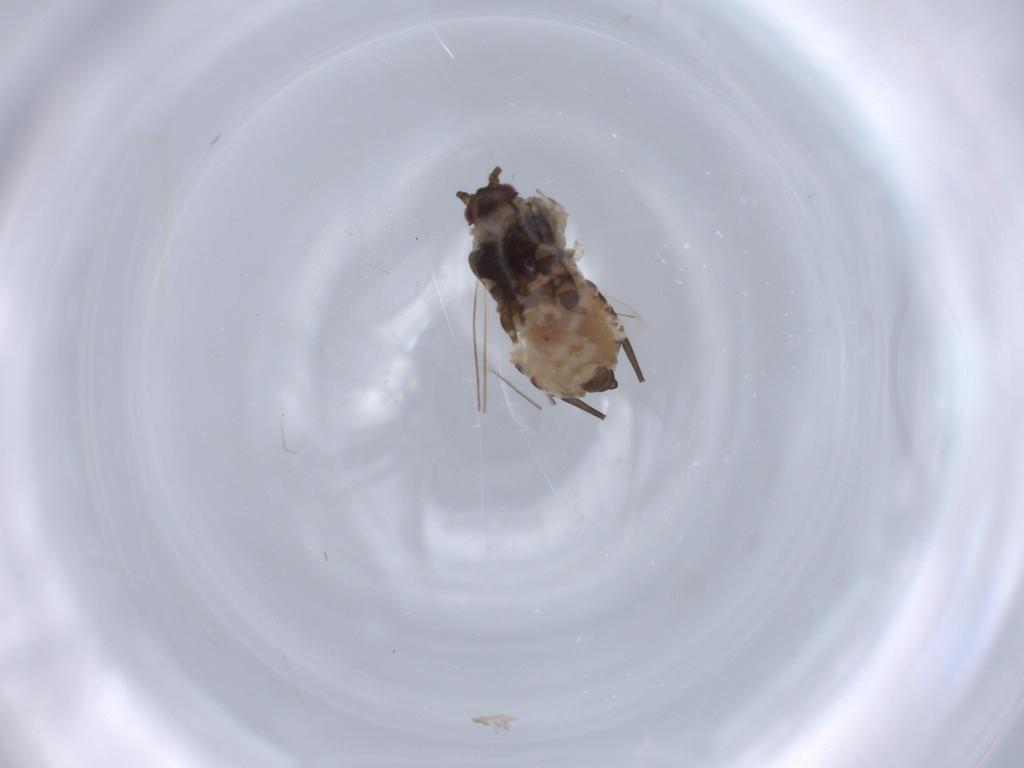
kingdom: Animalia
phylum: Arthropoda
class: Insecta
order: Hemiptera
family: Aphididae
